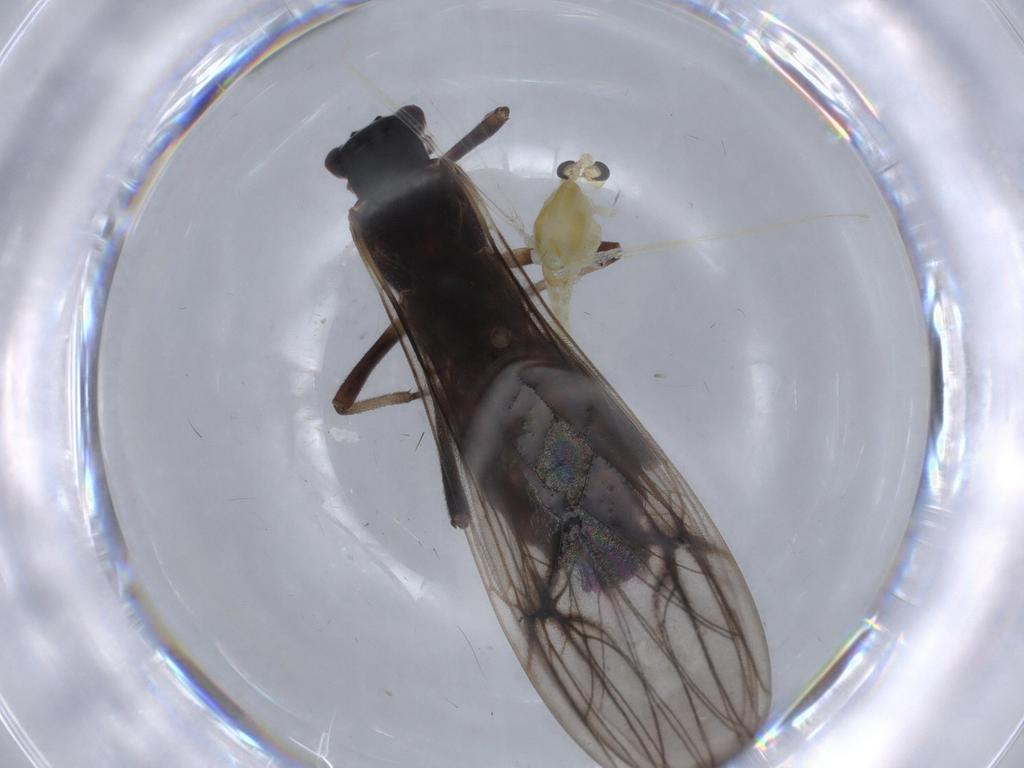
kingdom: Animalia
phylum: Arthropoda
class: Insecta
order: Diptera
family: Chironomidae
